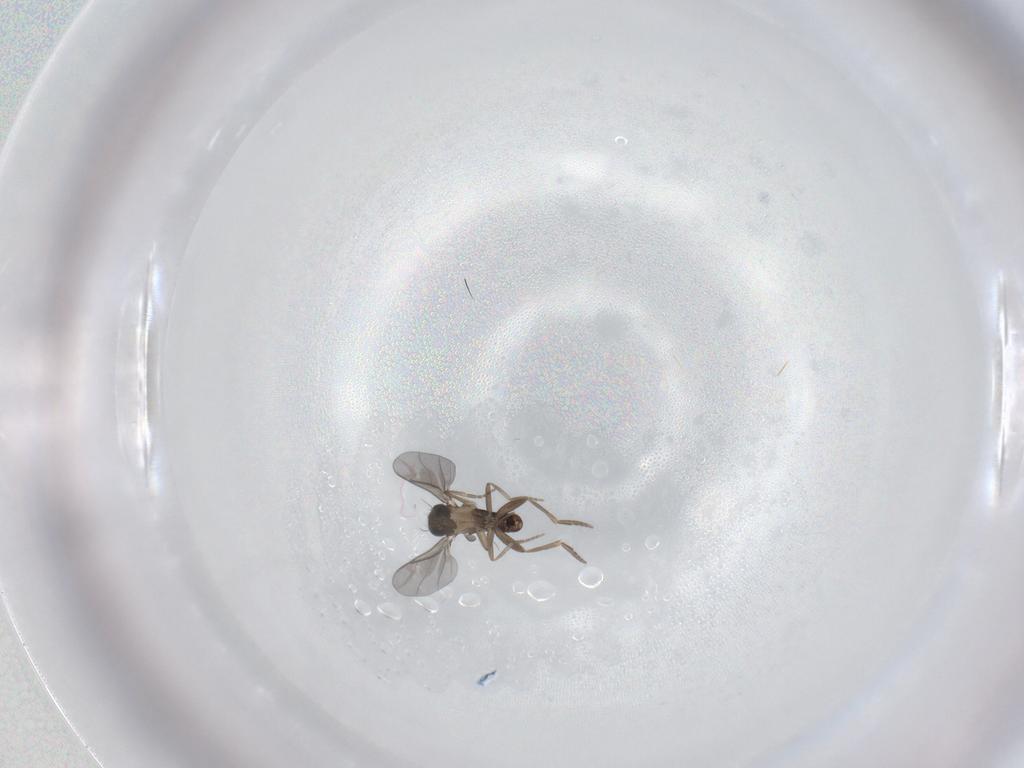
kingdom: Animalia
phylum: Arthropoda
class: Insecta
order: Diptera
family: Phoridae
